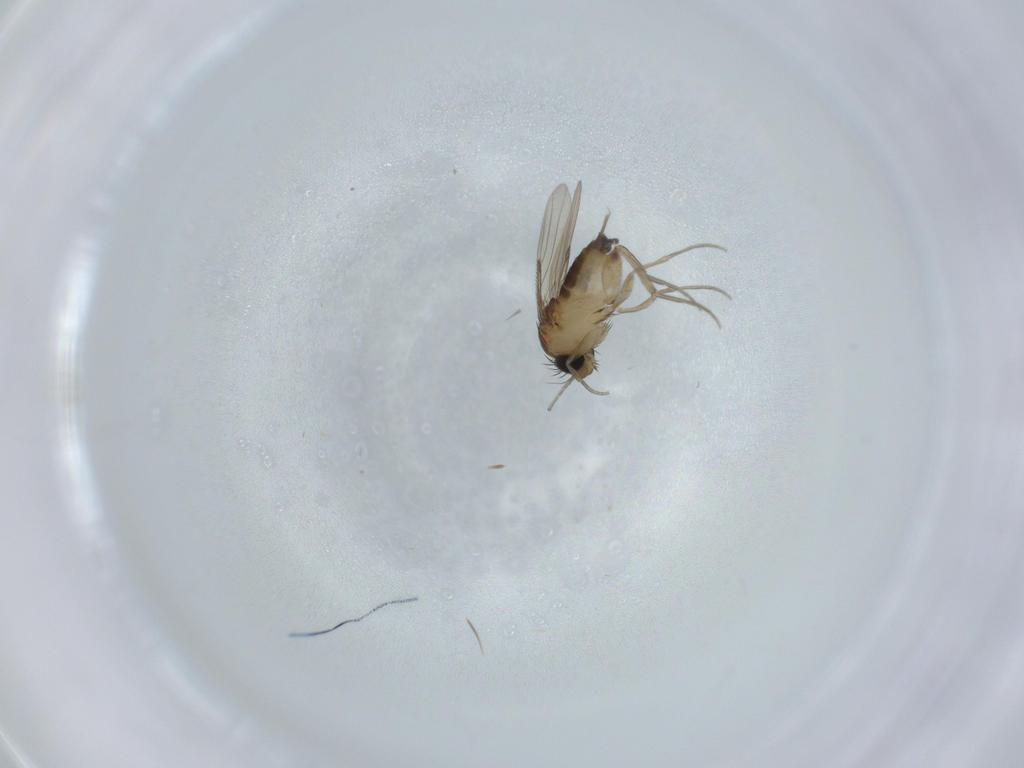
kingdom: Animalia
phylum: Arthropoda
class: Insecta
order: Diptera
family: Phoridae
